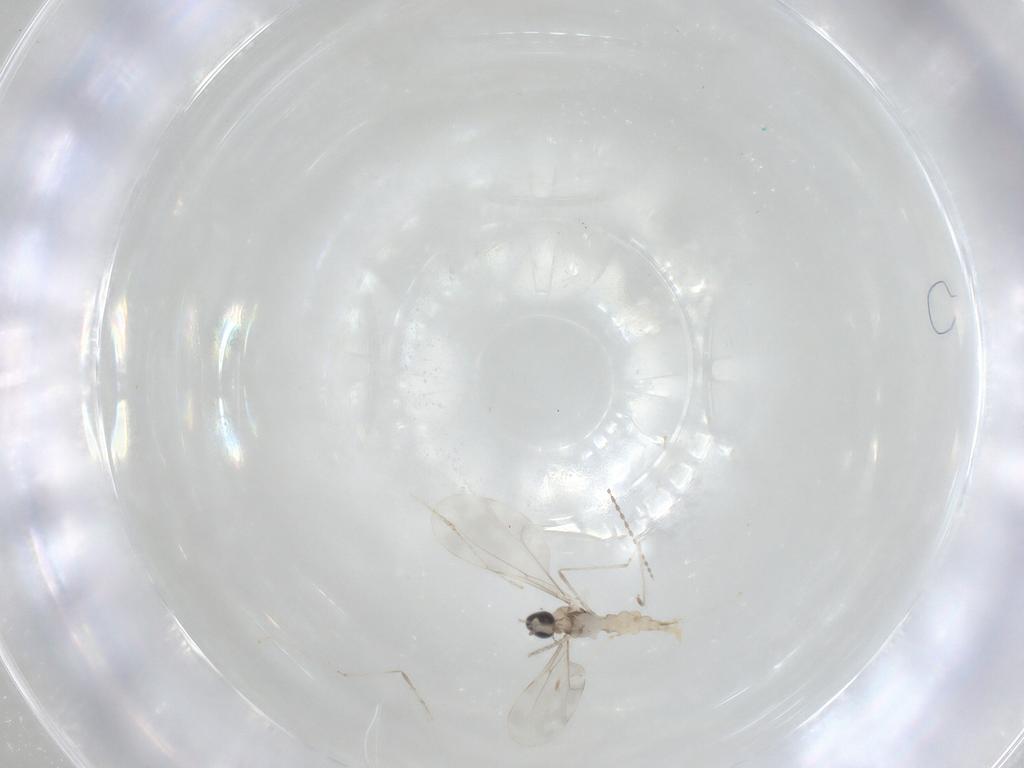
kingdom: Animalia
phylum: Arthropoda
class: Insecta
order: Diptera
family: Cecidomyiidae
